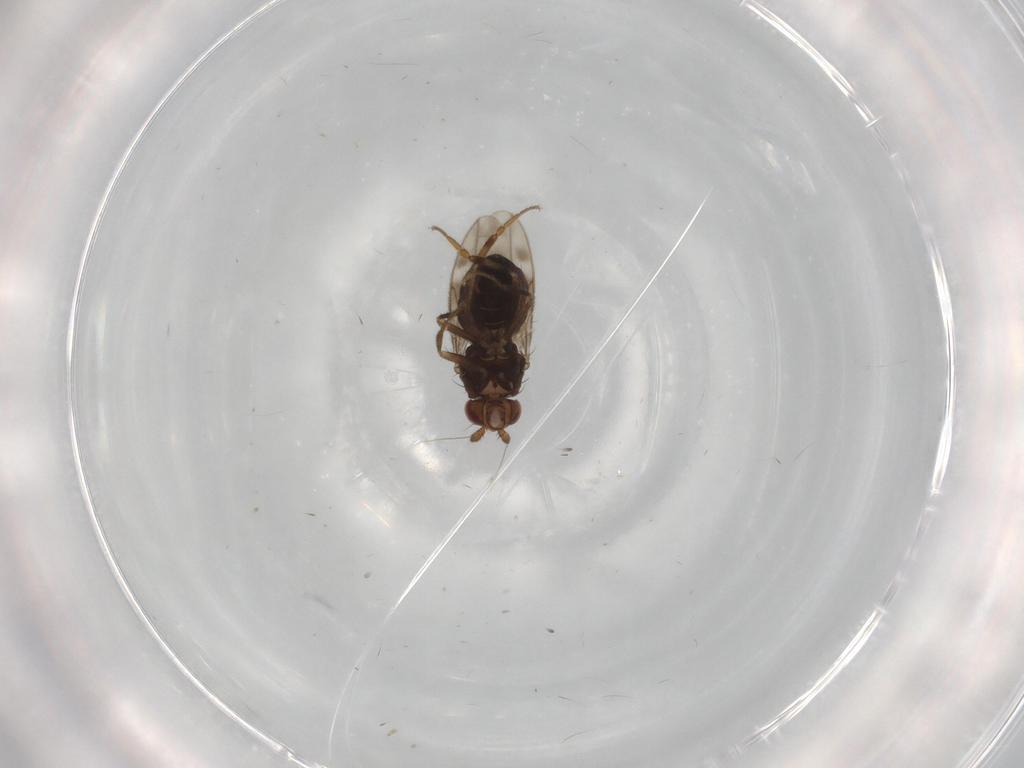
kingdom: Animalia
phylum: Arthropoda
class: Insecta
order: Diptera
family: Sphaeroceridae
